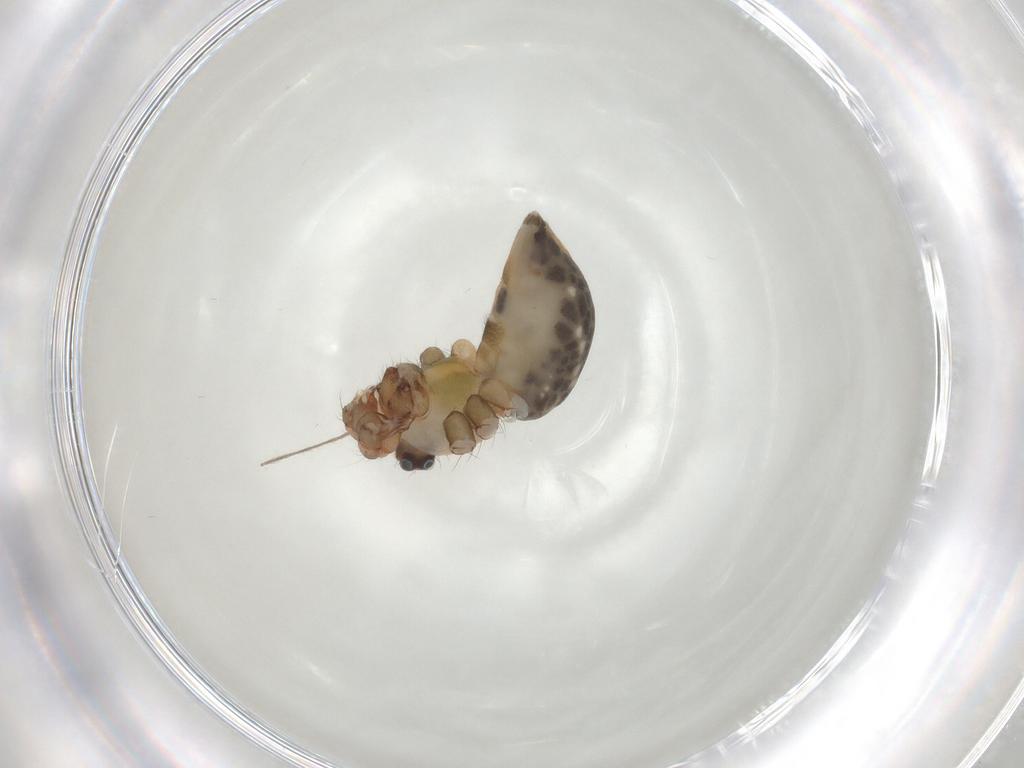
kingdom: Animalia
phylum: Arthropoda
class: Arachnida
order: Araneae
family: Pholcidae
